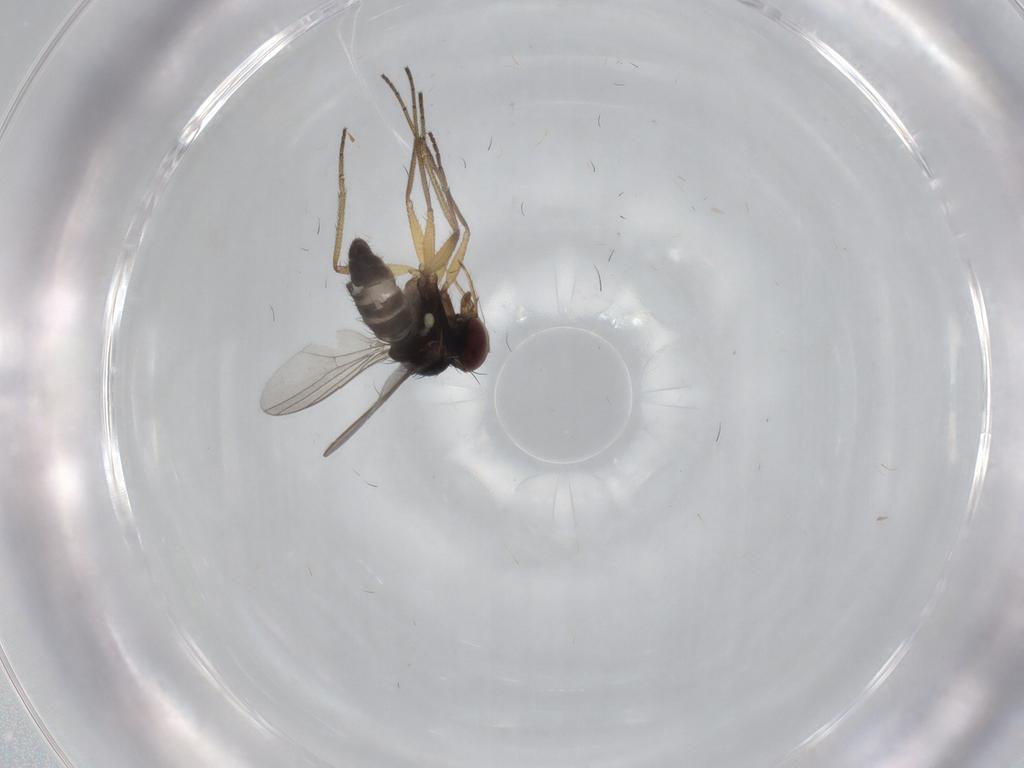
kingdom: Animalia
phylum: Arthropoda
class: Insecta
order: Diptera
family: Dolichopodidae
